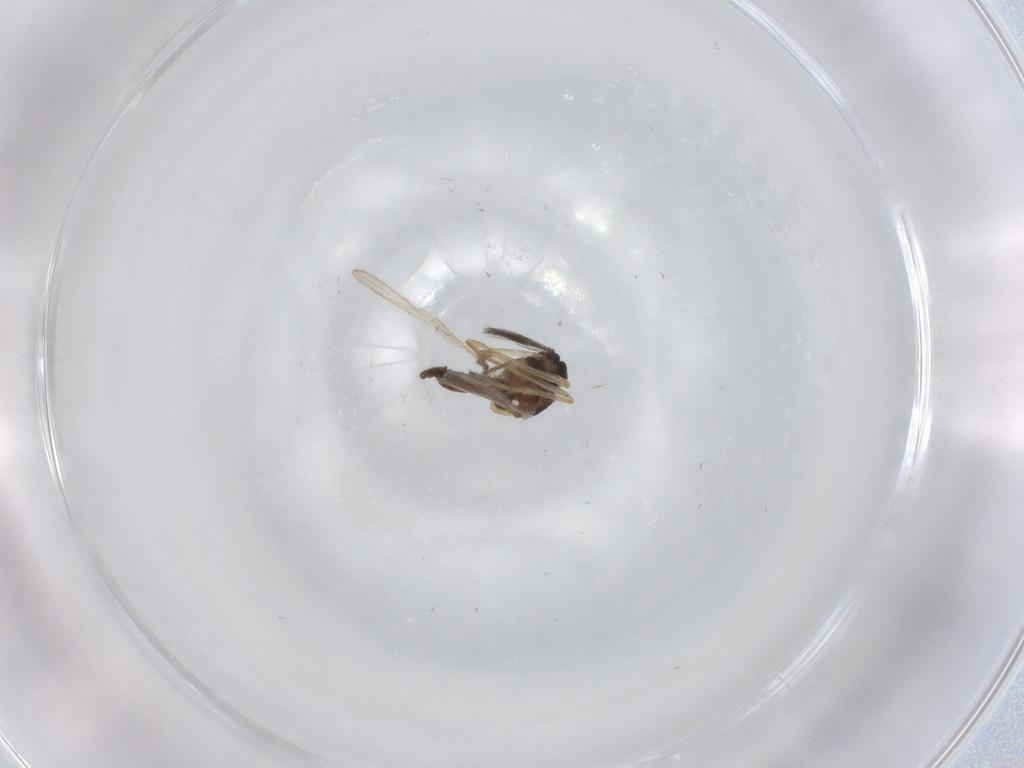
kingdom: Animalia
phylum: Arthropoda
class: Insecta
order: Diptera
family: Ceratopogonidae
